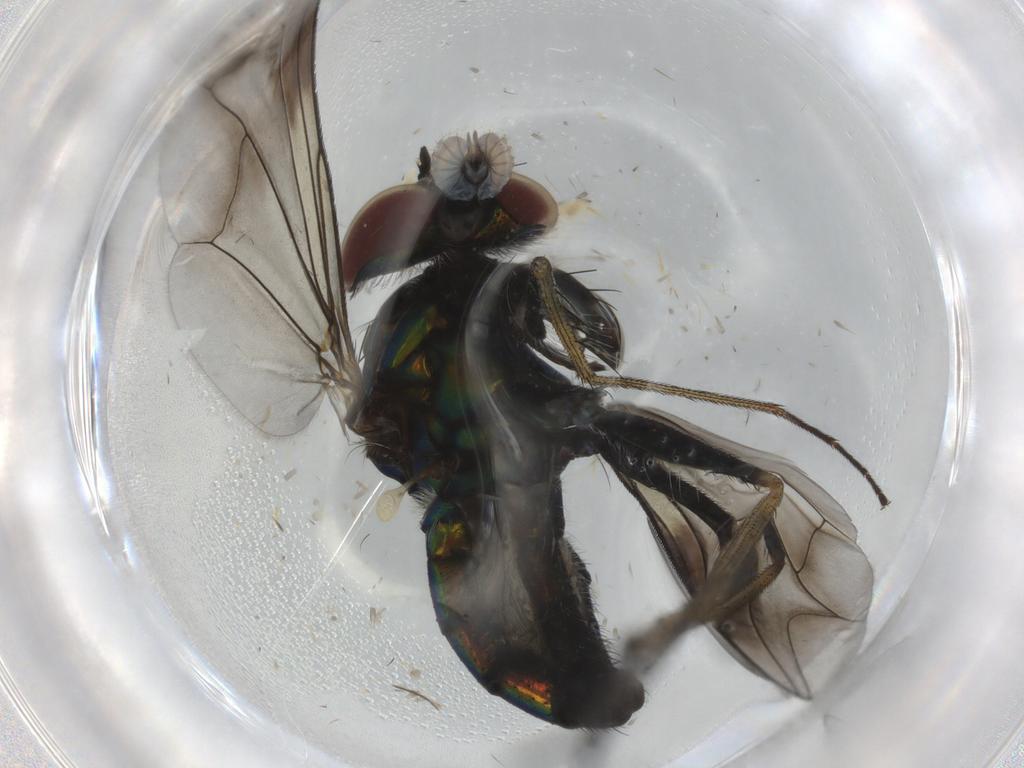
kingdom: Animalia
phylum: Arthropoda
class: Insecta
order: Diptera
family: Dolichopodidae
